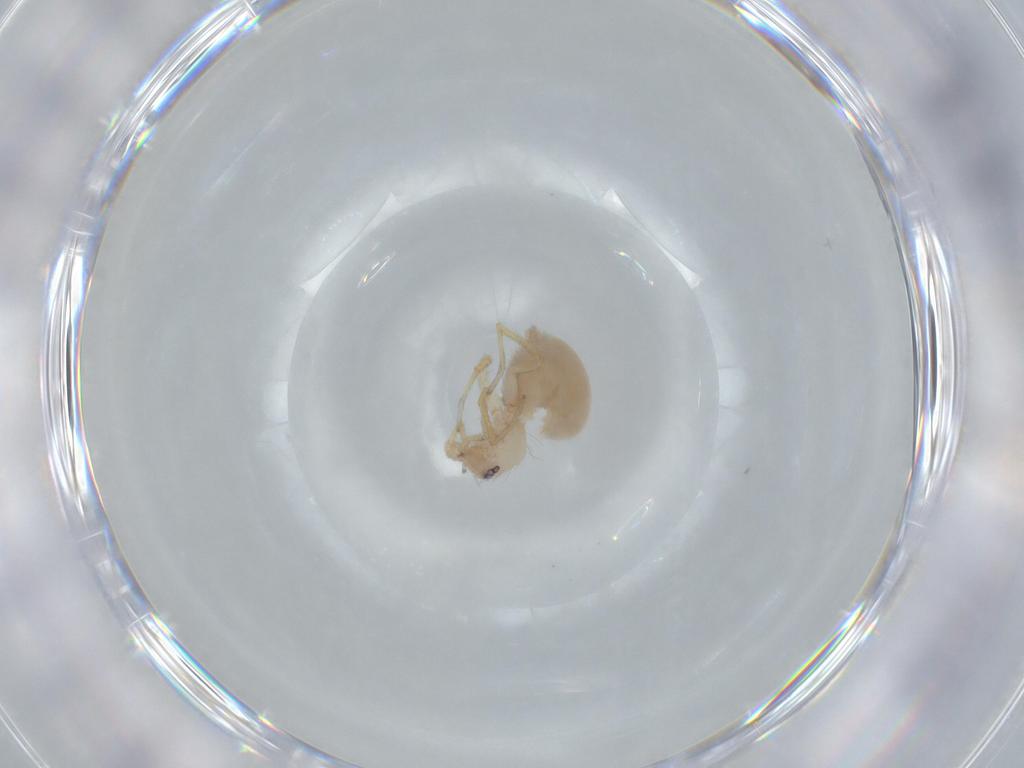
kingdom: Animalia
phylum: Arthropoda
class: Arachnida
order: Araneae
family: Oonopidae
